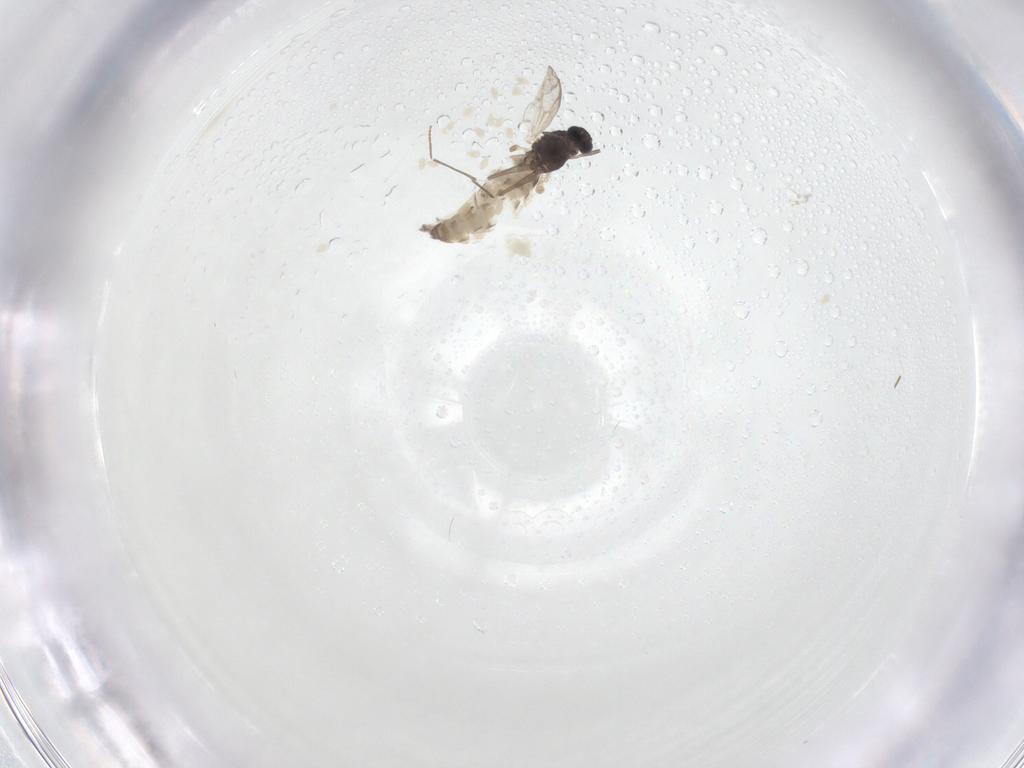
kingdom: Animalia
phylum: Arthropoda
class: Insecta
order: Diptera
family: Chironomidae
